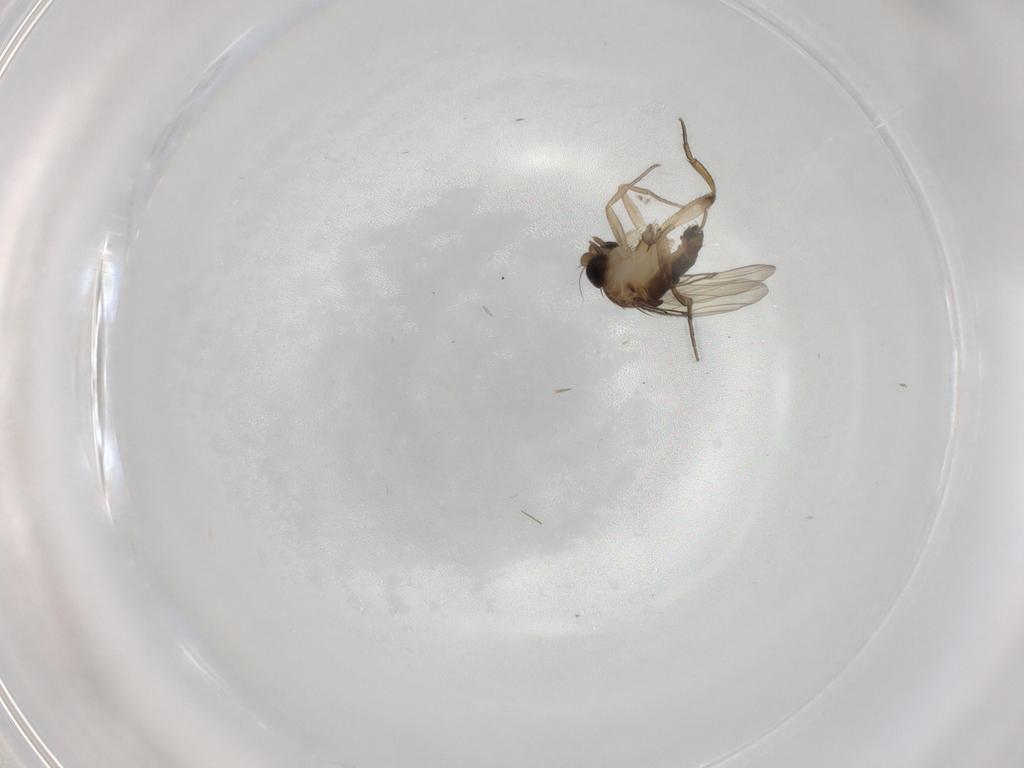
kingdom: Animalia
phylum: Arthropoda
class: Insecta
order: Diptera
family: Phoridae
